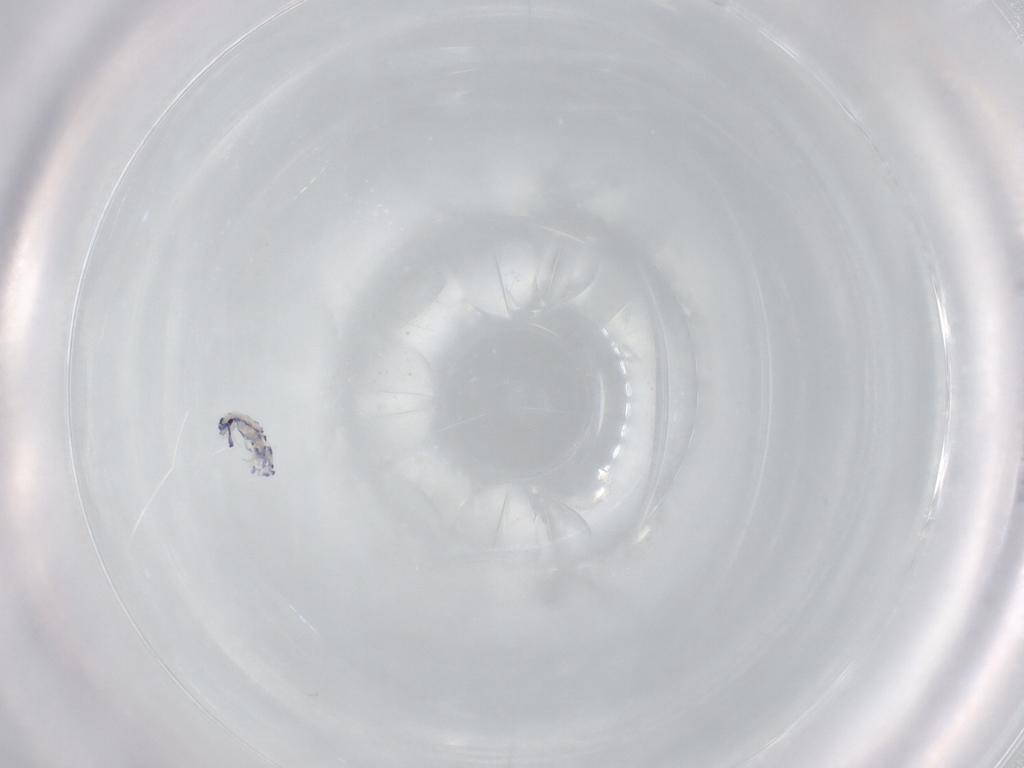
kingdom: Animalia
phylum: Arthropoda
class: Collembola
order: Entomobryomorpha
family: Entomobryidae
